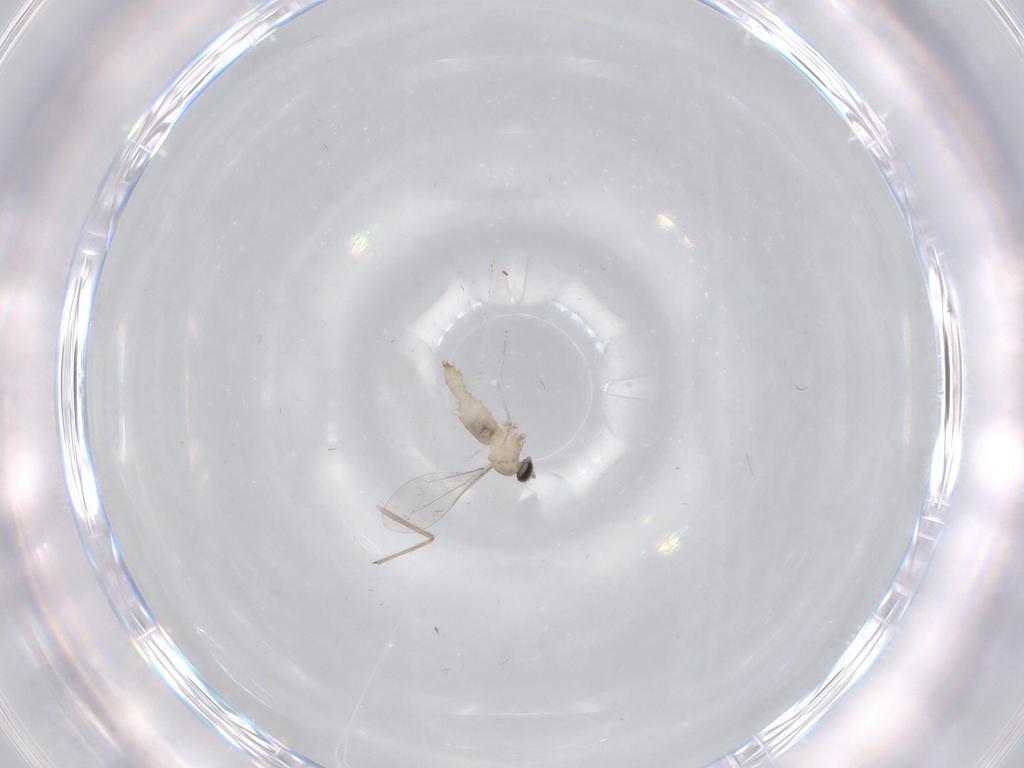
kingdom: Animalia
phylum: Arthropoda
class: Insecta
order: Diptera
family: Cecidomyiidae
